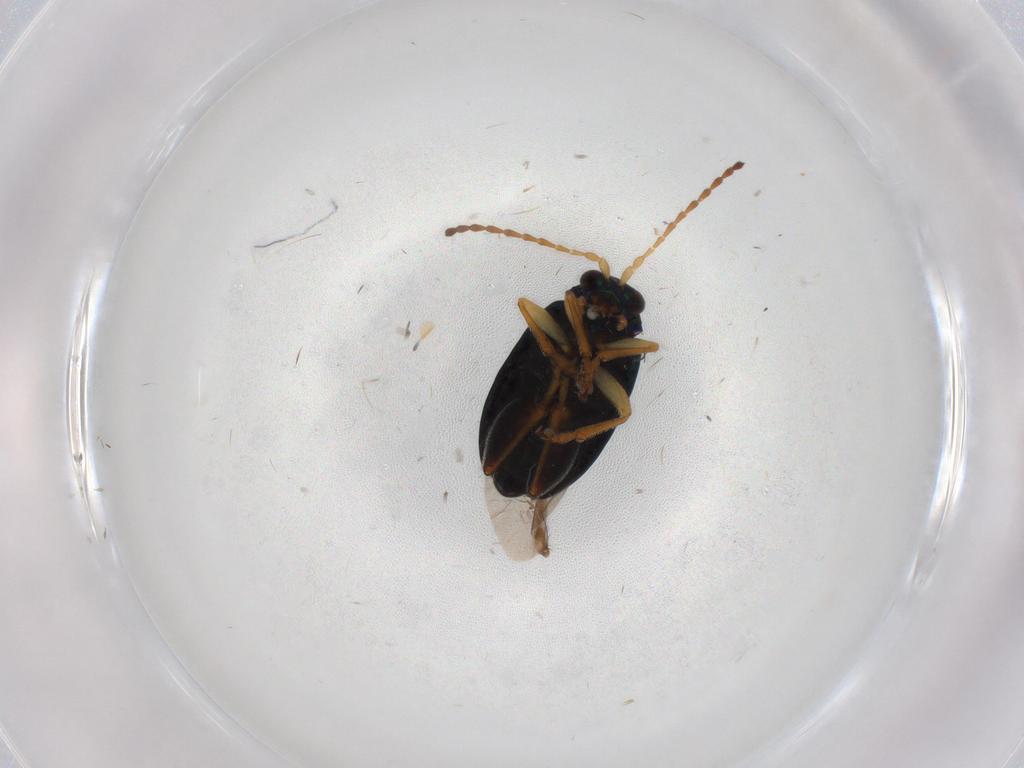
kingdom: Animalia
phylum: Arthropoda
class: Insecta
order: Coleoptera
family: Chrysomelidae
